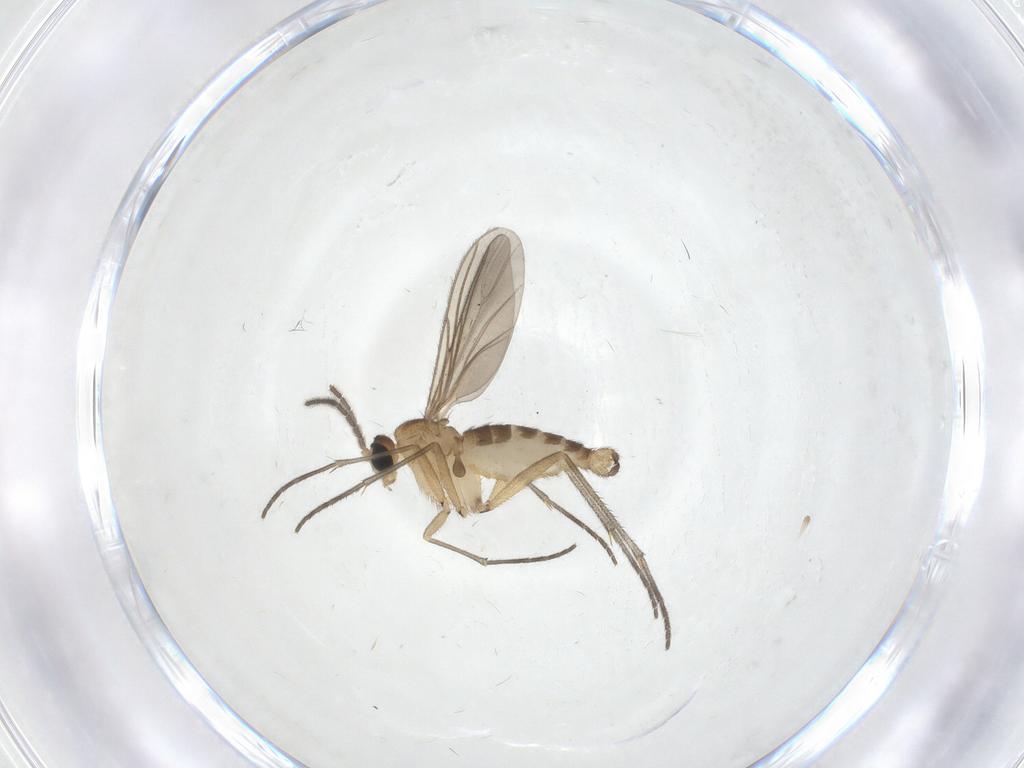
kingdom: Animalia
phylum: Arthropoda
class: Insecta
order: Diptera
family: Sciaridae
